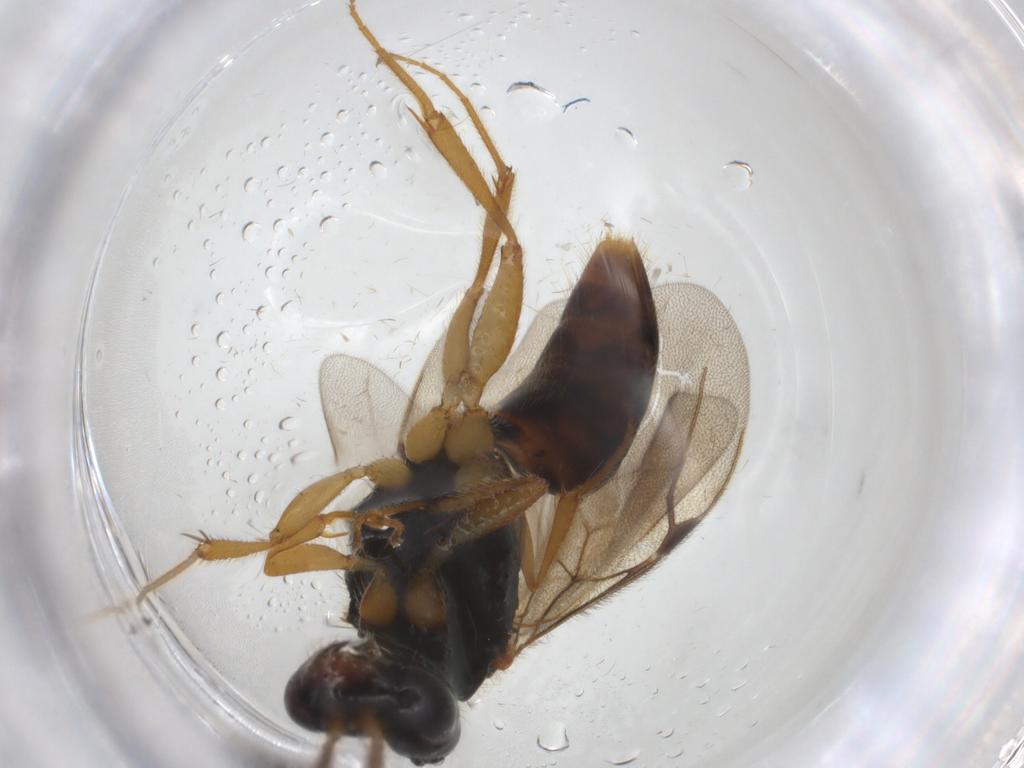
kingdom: Animalia
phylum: Arthropoda
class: Insecta
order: Hymenoptera
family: Bethylidae
